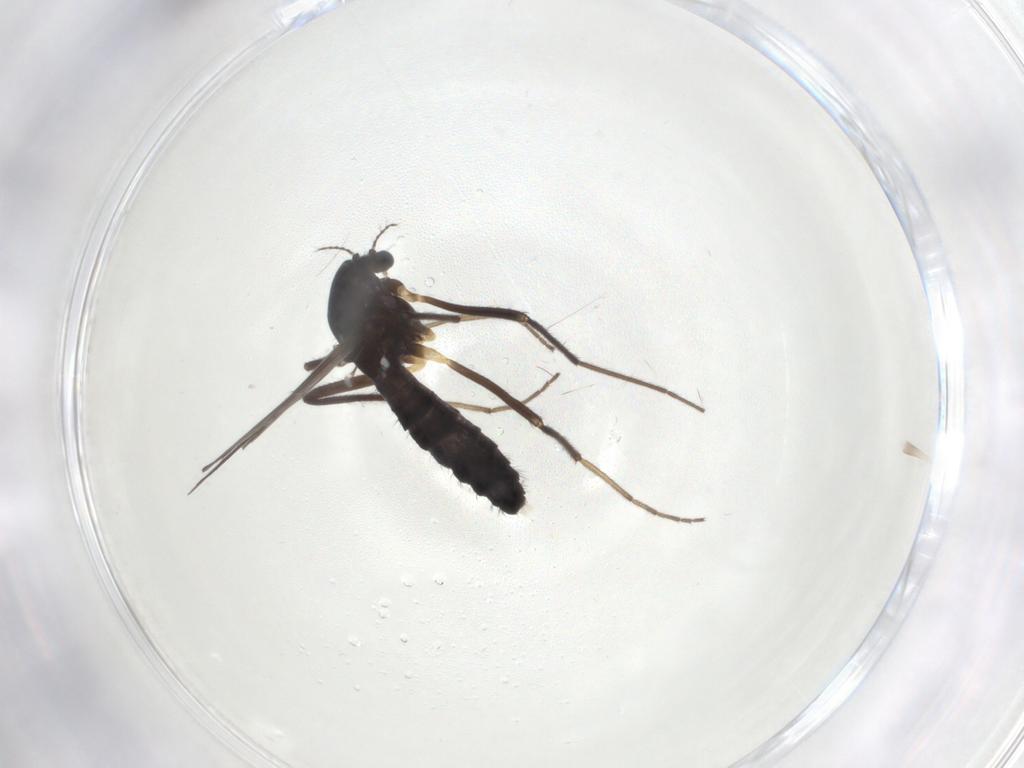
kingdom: Animalia
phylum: Arthropoda
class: Insecta
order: Diptera
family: Chironomidae
